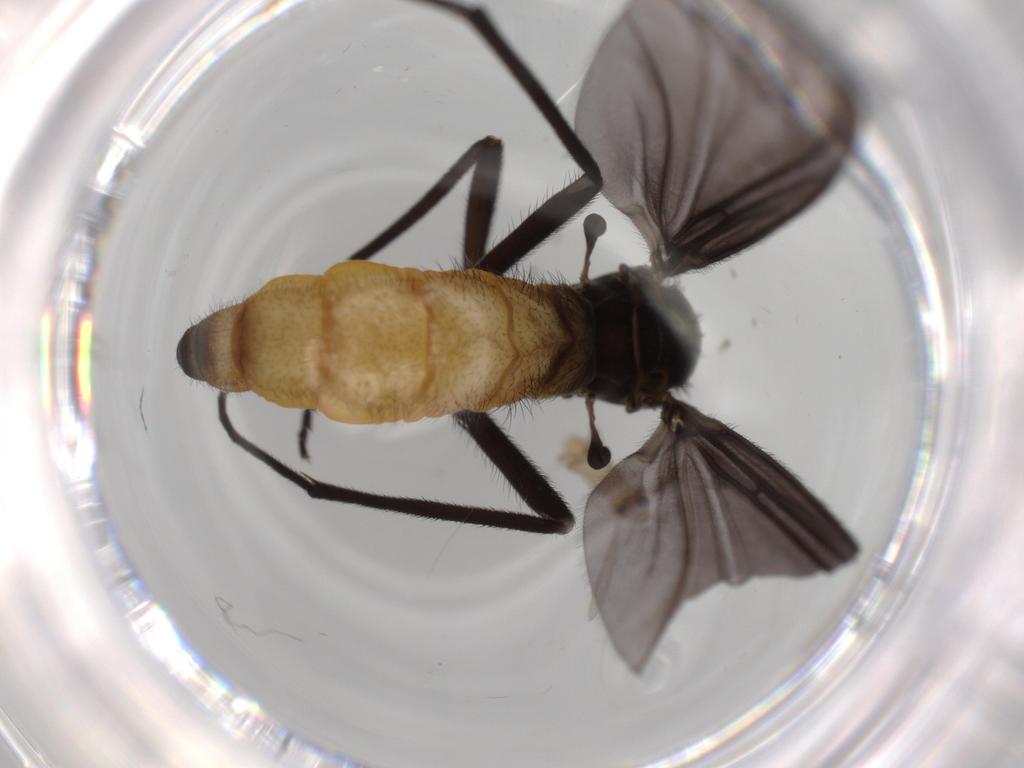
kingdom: Animalia
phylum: Arthropoda
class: Insecta
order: Diptera
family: Chironomidae
